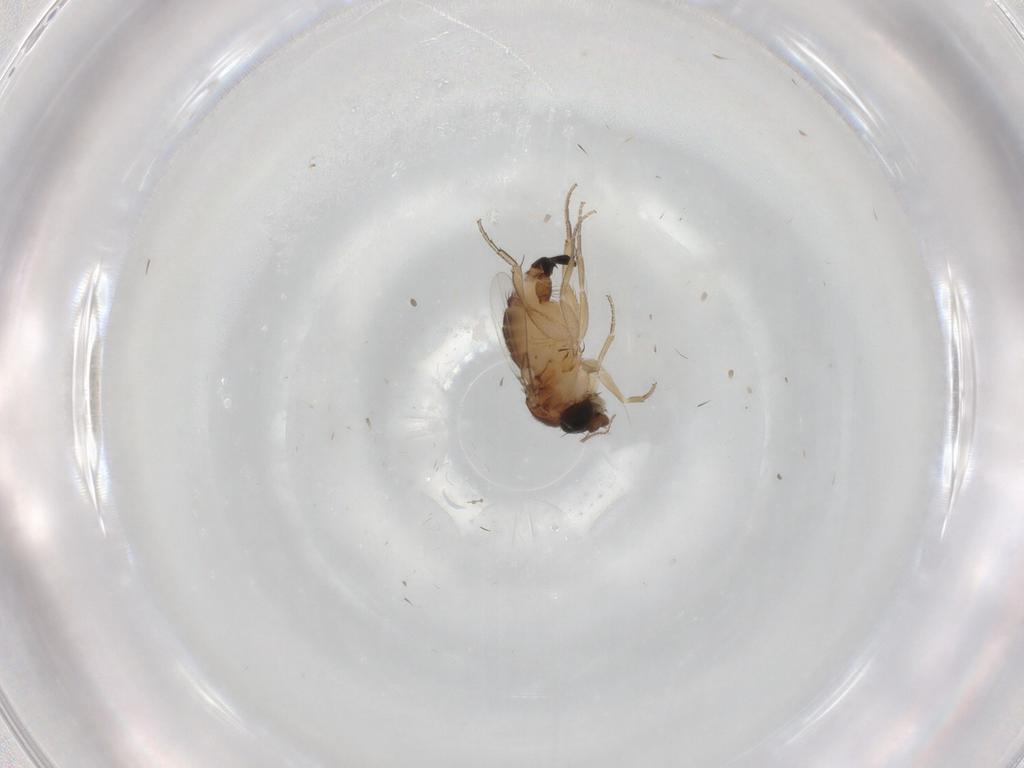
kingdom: Animalia
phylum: Arthropoda
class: Insecta
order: Diptera
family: Phoridae
